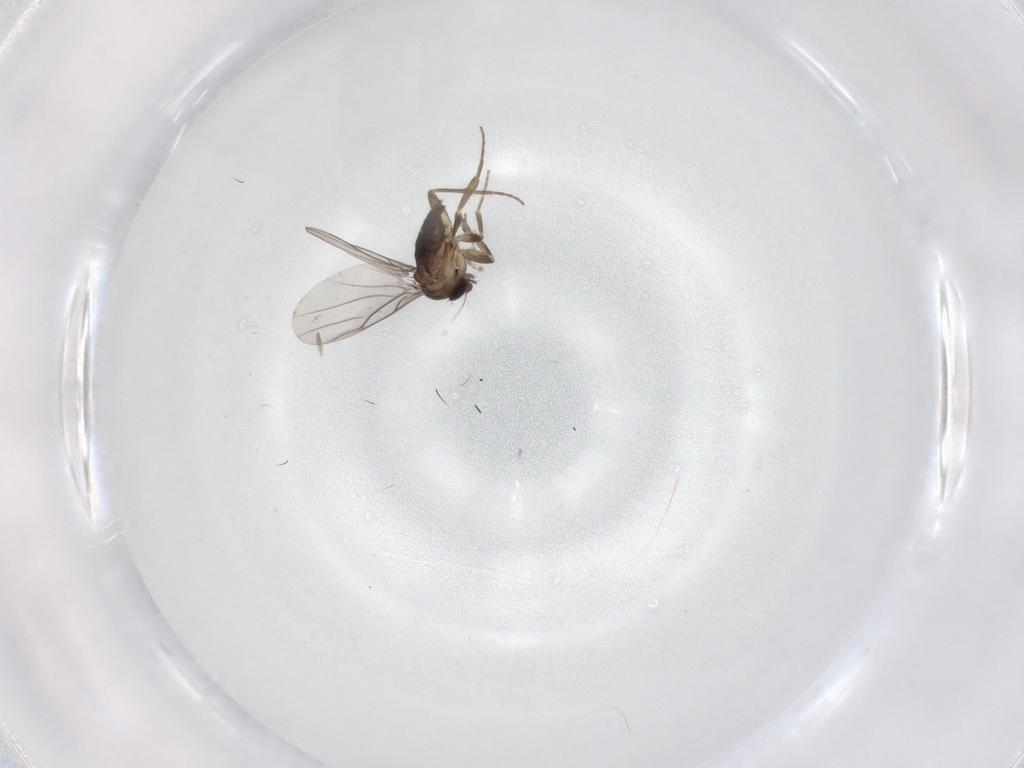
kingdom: Animalia
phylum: Arthropoda
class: Insecta
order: Diptera
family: Phoridae
